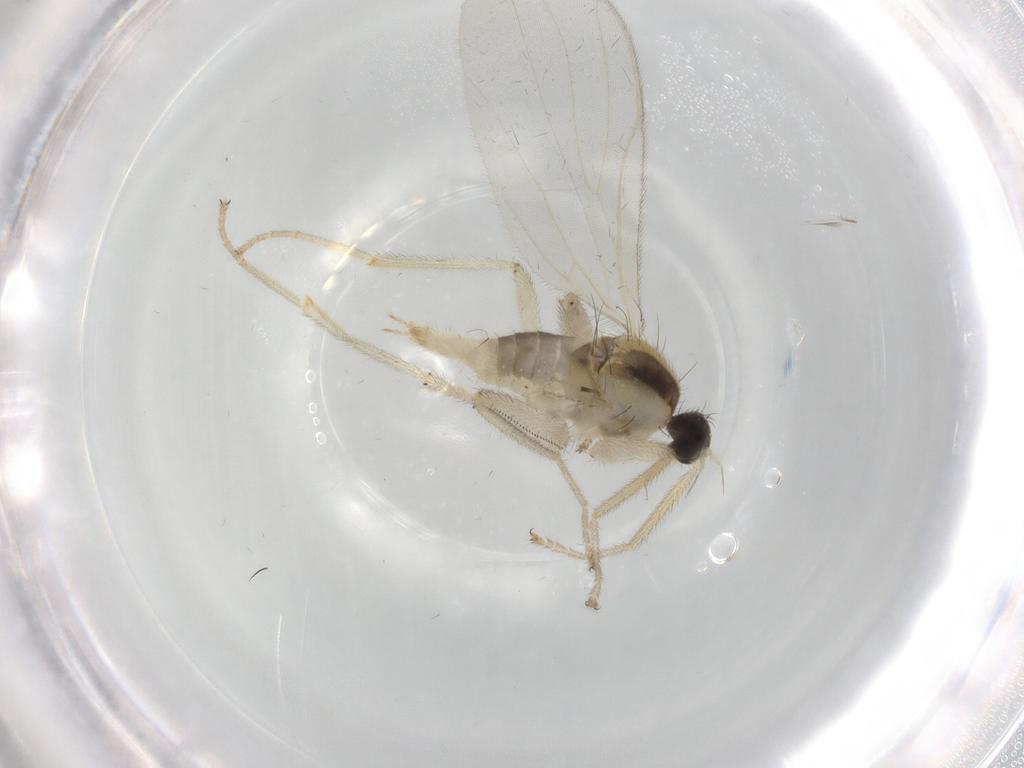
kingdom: Animalia
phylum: Arthropoda
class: Insecta
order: Diptera
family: Hybotidae
